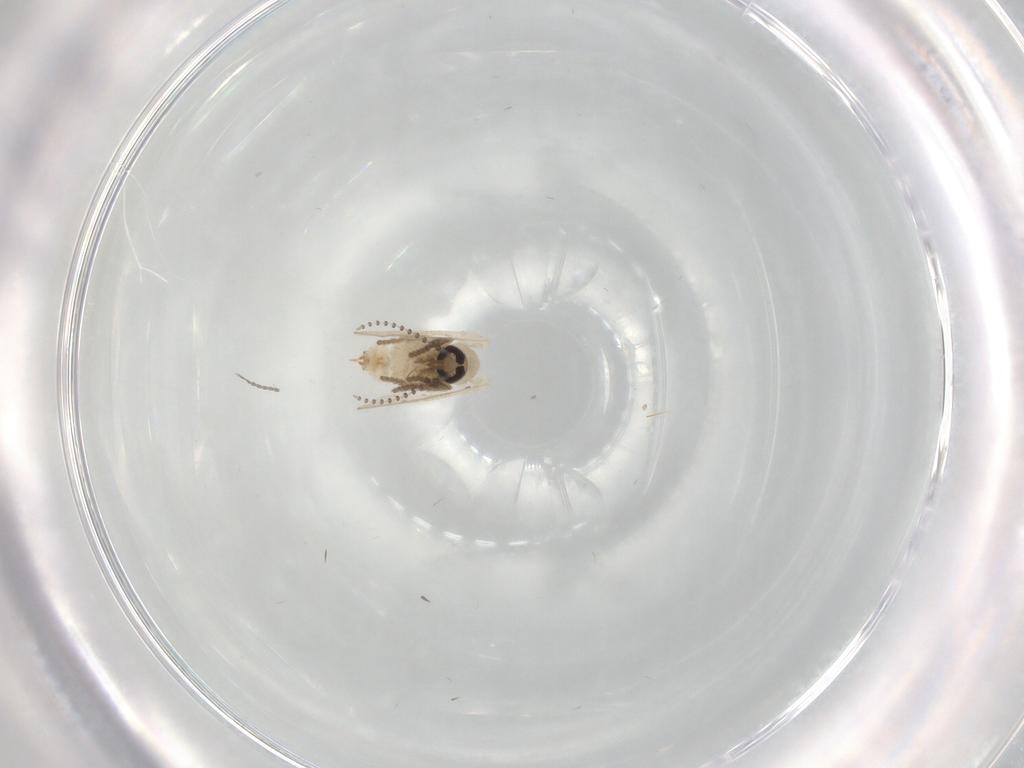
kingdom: Animalia
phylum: Arthropoda
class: Insecta
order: Diptera
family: Psychodidae
